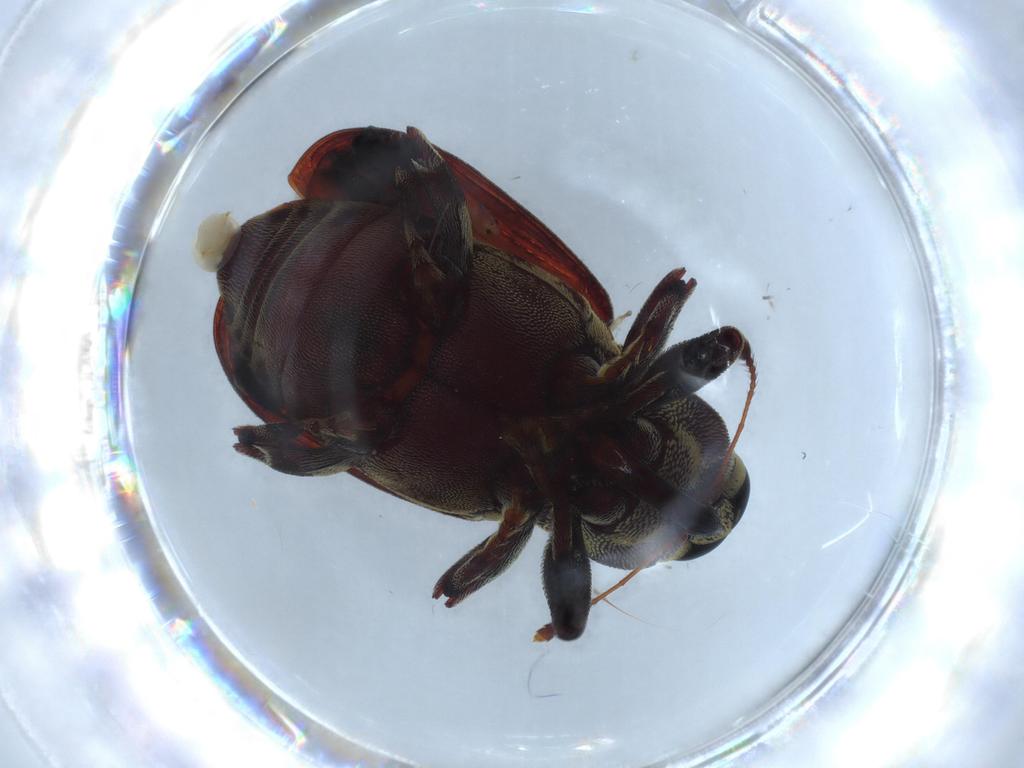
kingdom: Animalia
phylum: Arthropoda
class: Insecta
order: Coleoptera
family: Curculionidae
